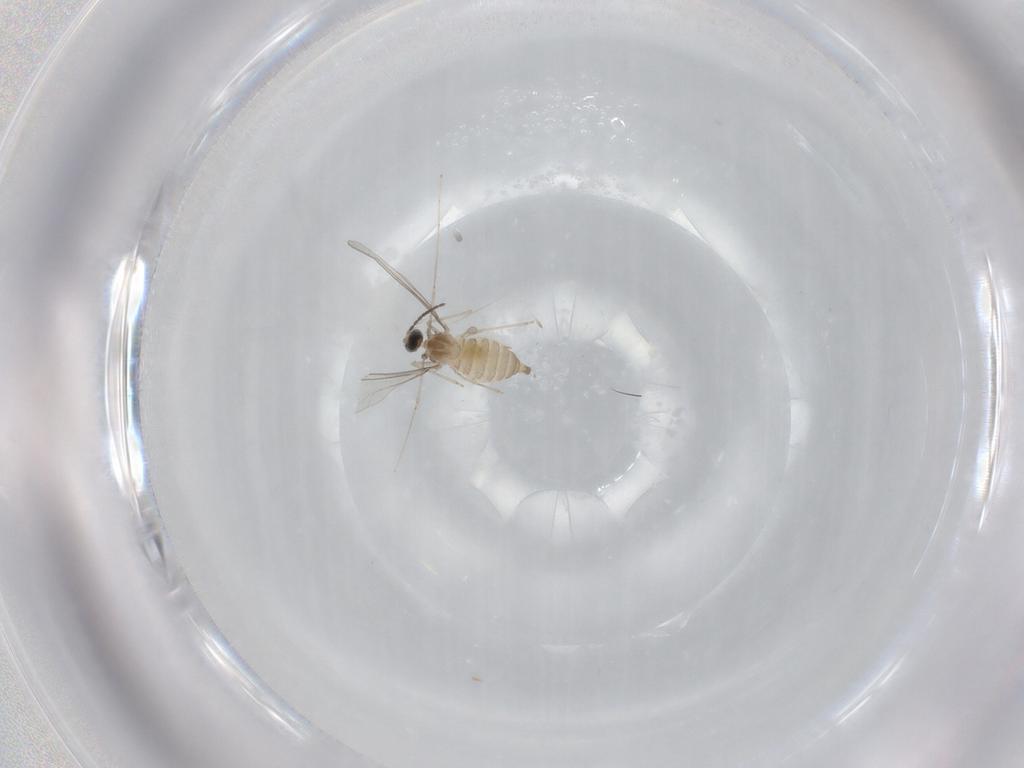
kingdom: Animalia
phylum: Arthropoda
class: Insecta
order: Diptera
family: Cecidomyiidae
